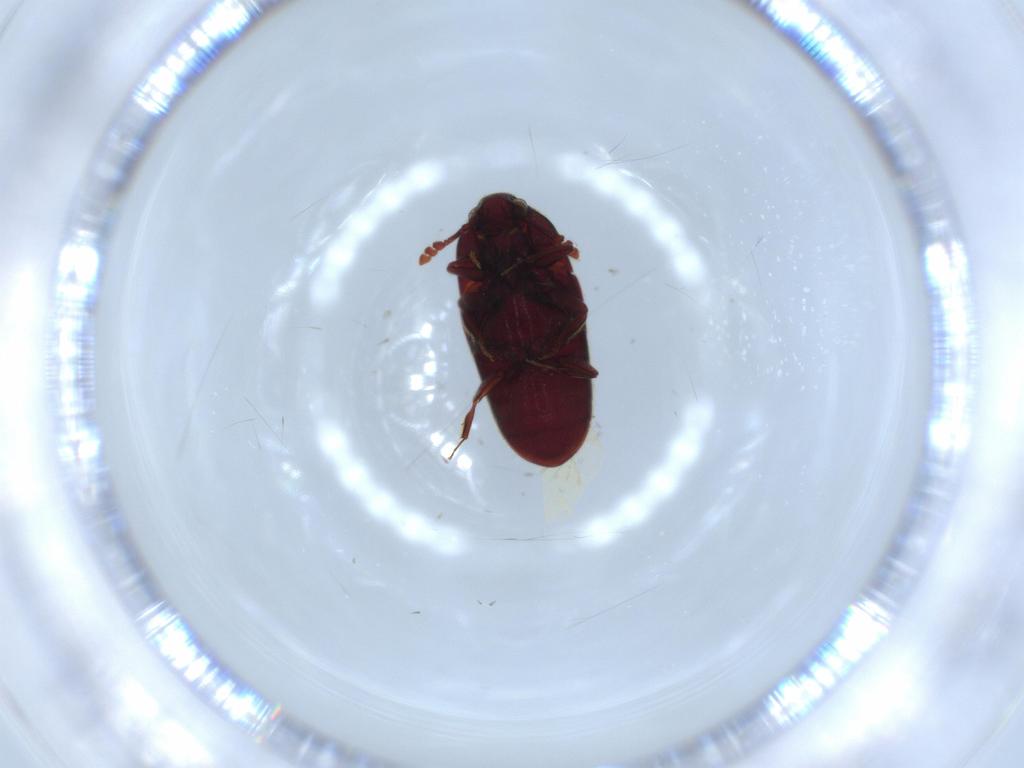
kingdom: Animalia
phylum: Arthropoda
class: Insecta
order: Coleoptera
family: Throscidae
